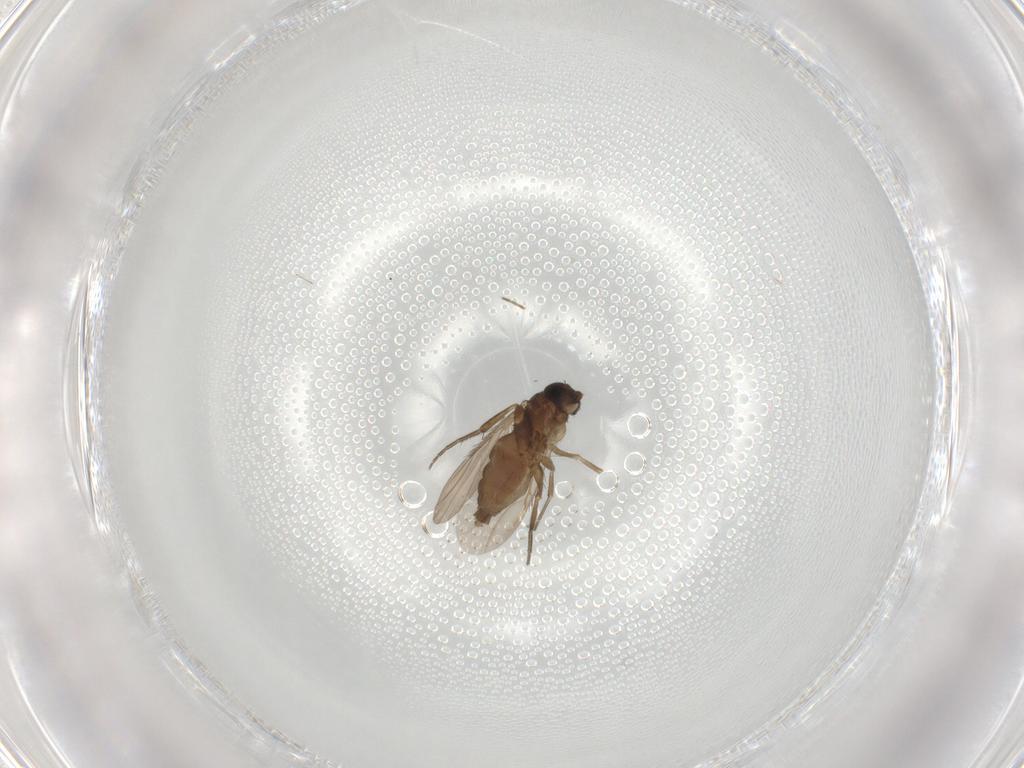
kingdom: Animalia
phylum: Arthropoda
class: Insecta
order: Diptera
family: Phoridae
